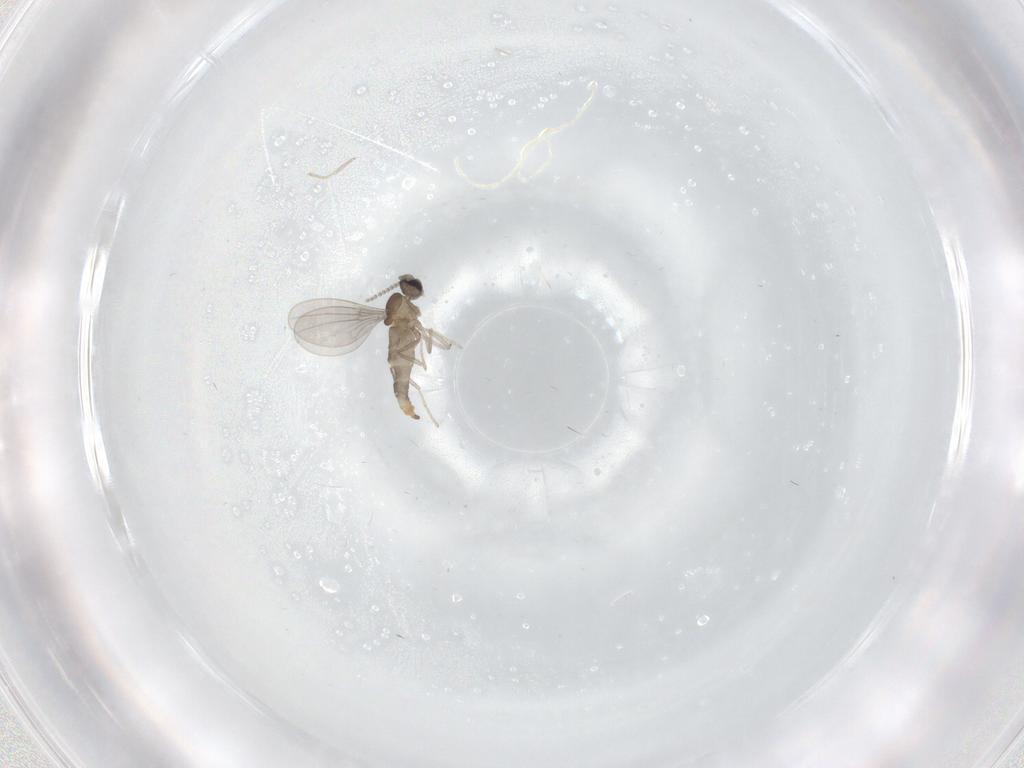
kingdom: Animalia
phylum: Arthropoda
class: Insecta
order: Diptera
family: Cecidomyiidae
